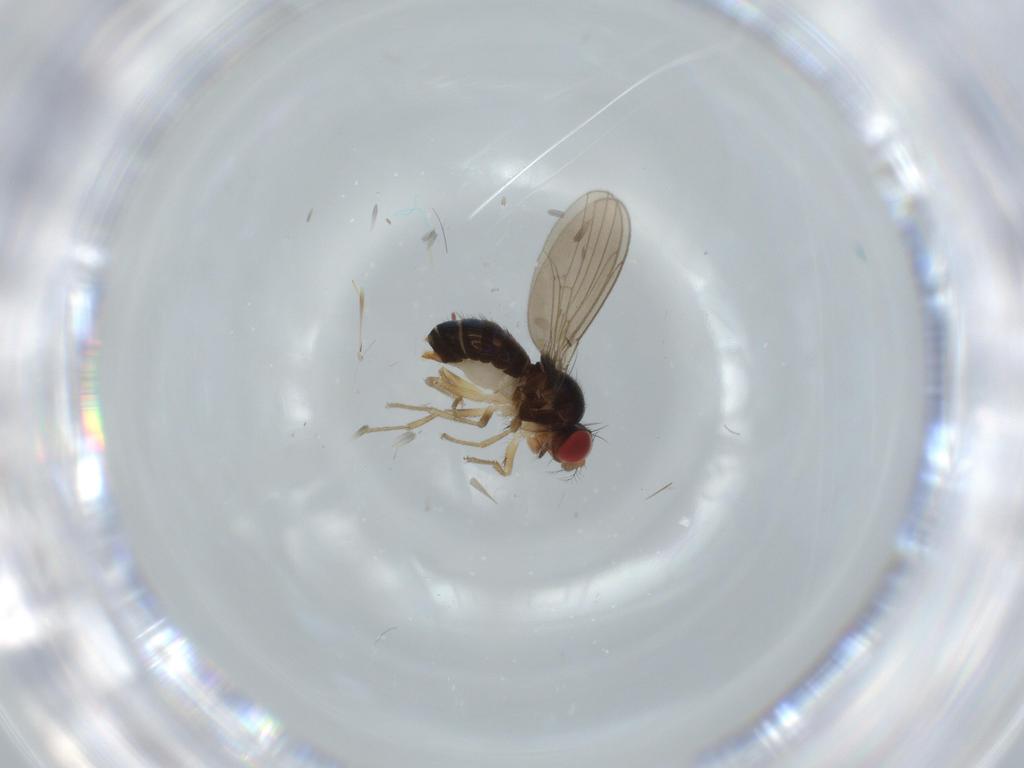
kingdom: Animalia
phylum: Arthropoda
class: Insecta
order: Diptera
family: Drosophilidae
